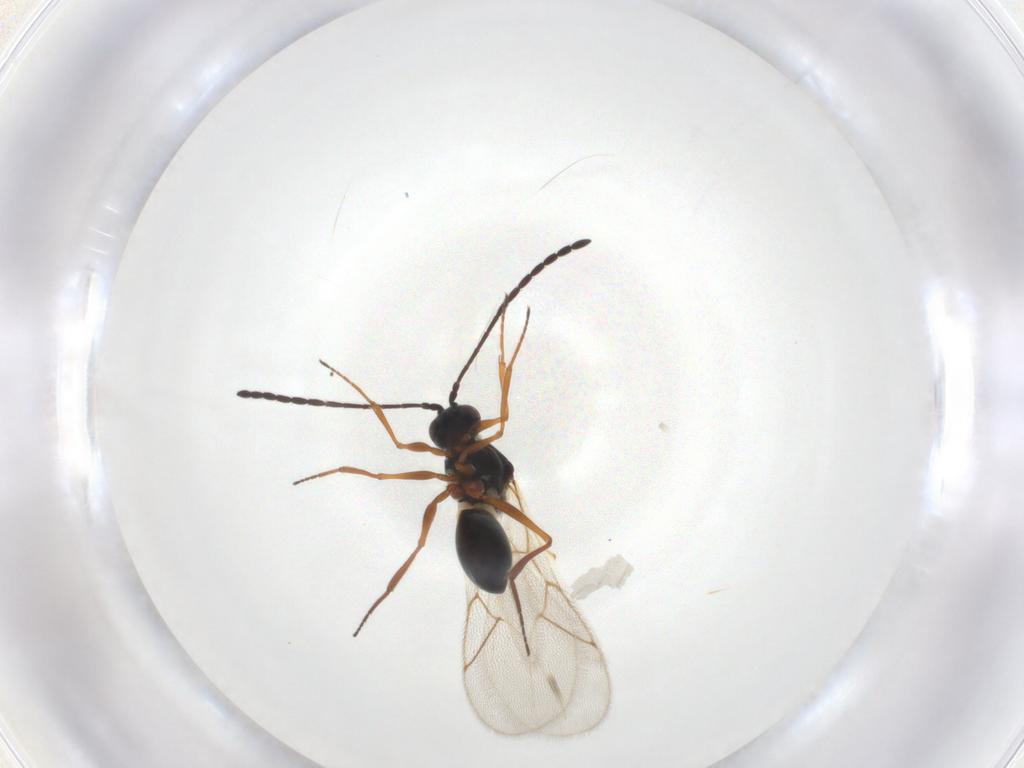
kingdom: Animalia
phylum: Arthropoda
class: Insecta
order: Hymenoptera
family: Figitidae
